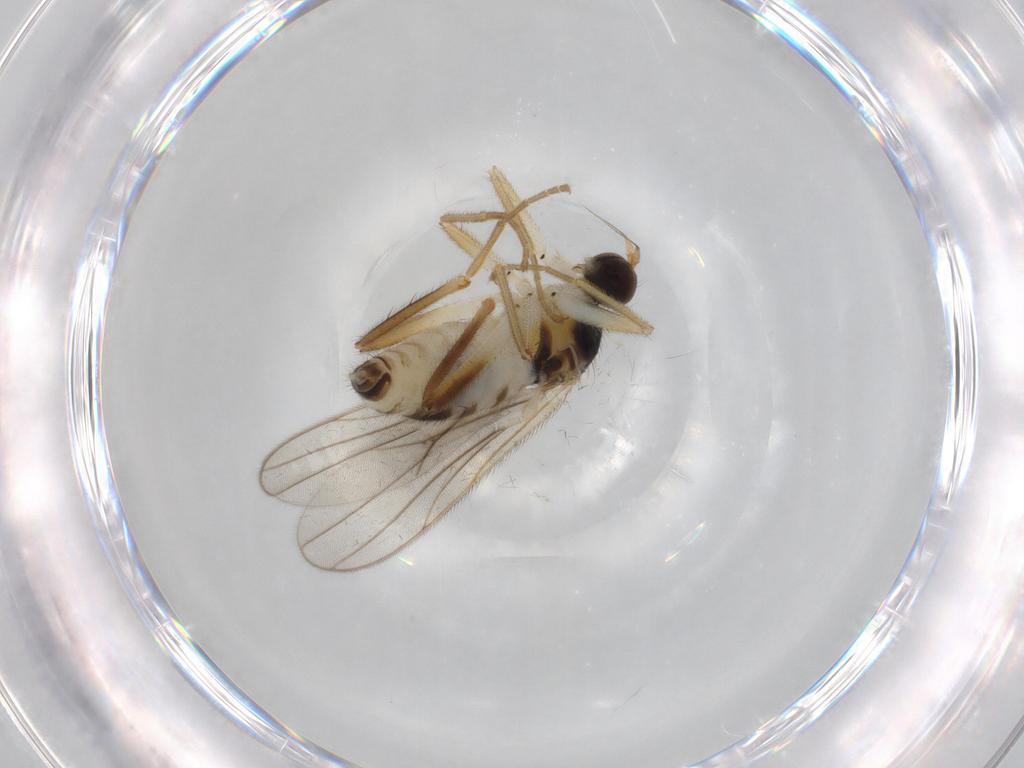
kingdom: Animalia
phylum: Arthropoda
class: Insecta
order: Diptera
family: Hybotidae
